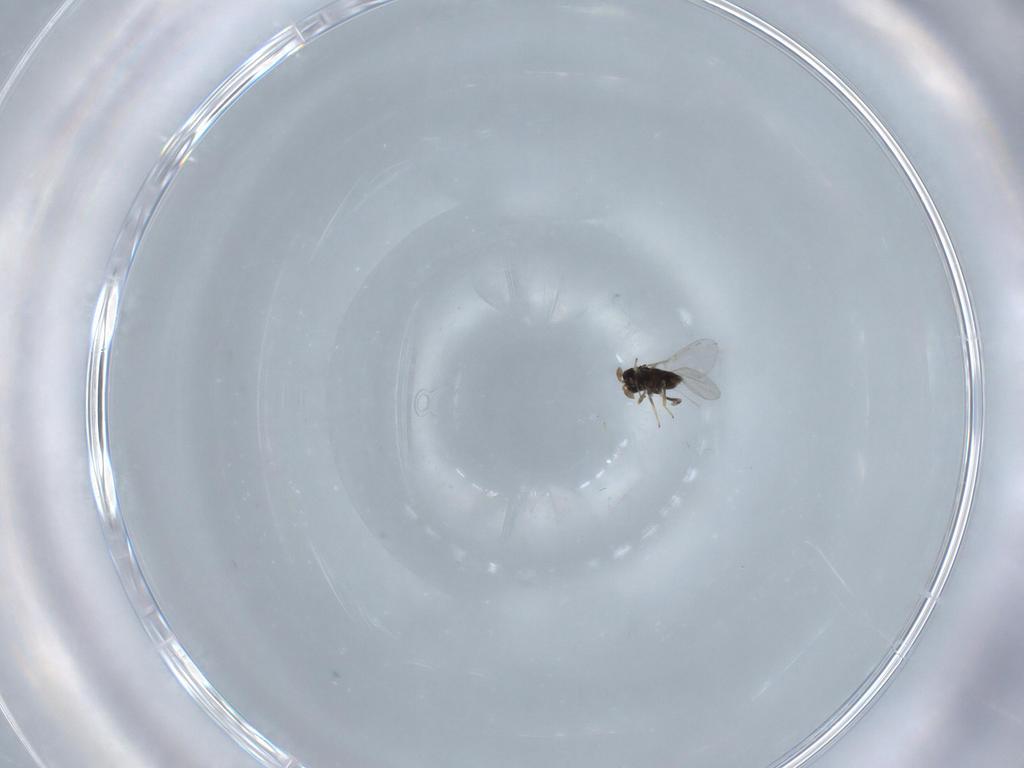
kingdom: Animalia
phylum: Arthropoda
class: Insecta
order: Hymenoptera
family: Encyrtidae
